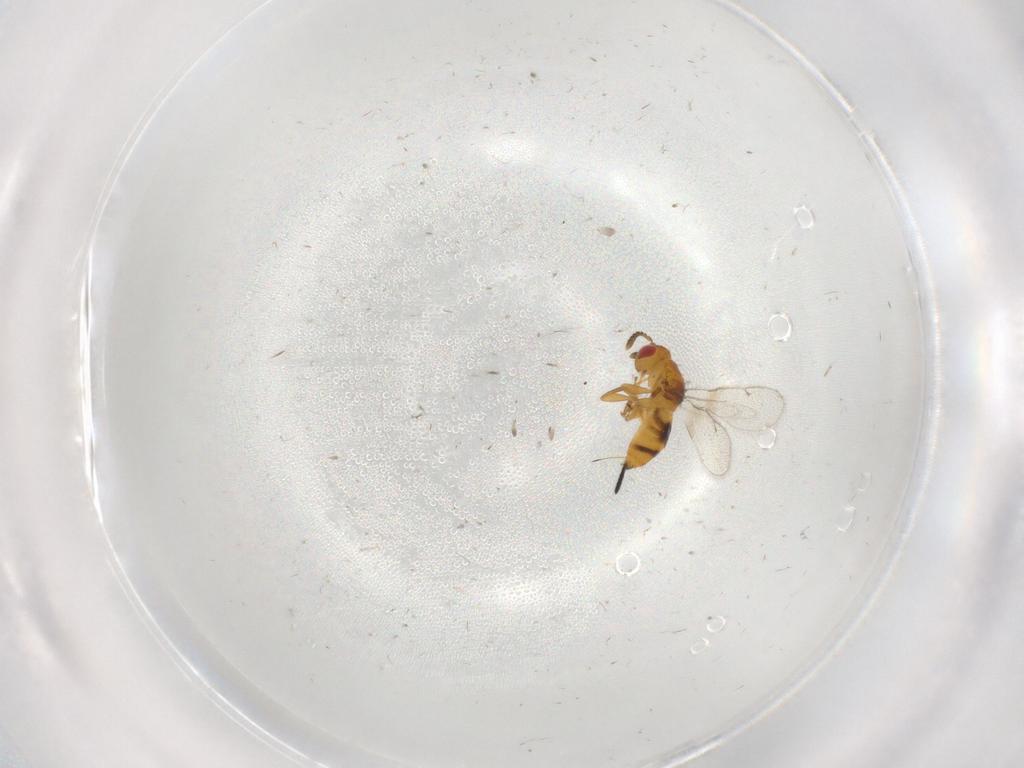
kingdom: Animalia
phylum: Arthropoda
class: Insecta
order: Hymenoptera
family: Torymidae
